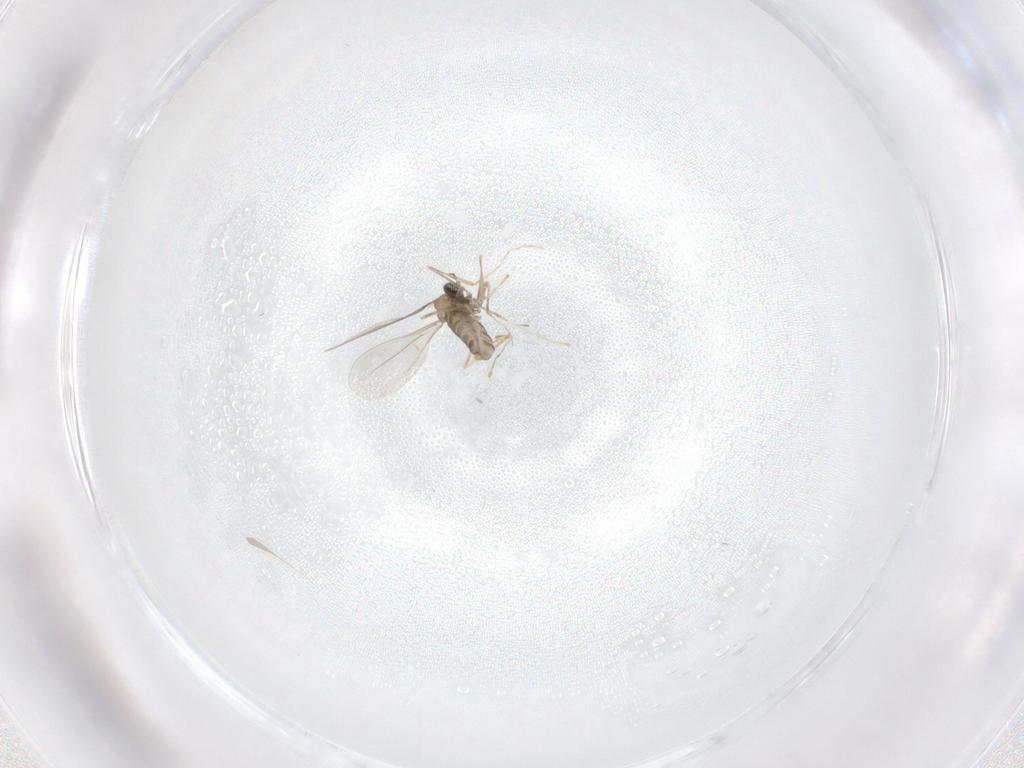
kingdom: Animalia
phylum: Arthropoda
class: Insecta
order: Diptera
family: Cecidomyiidae
